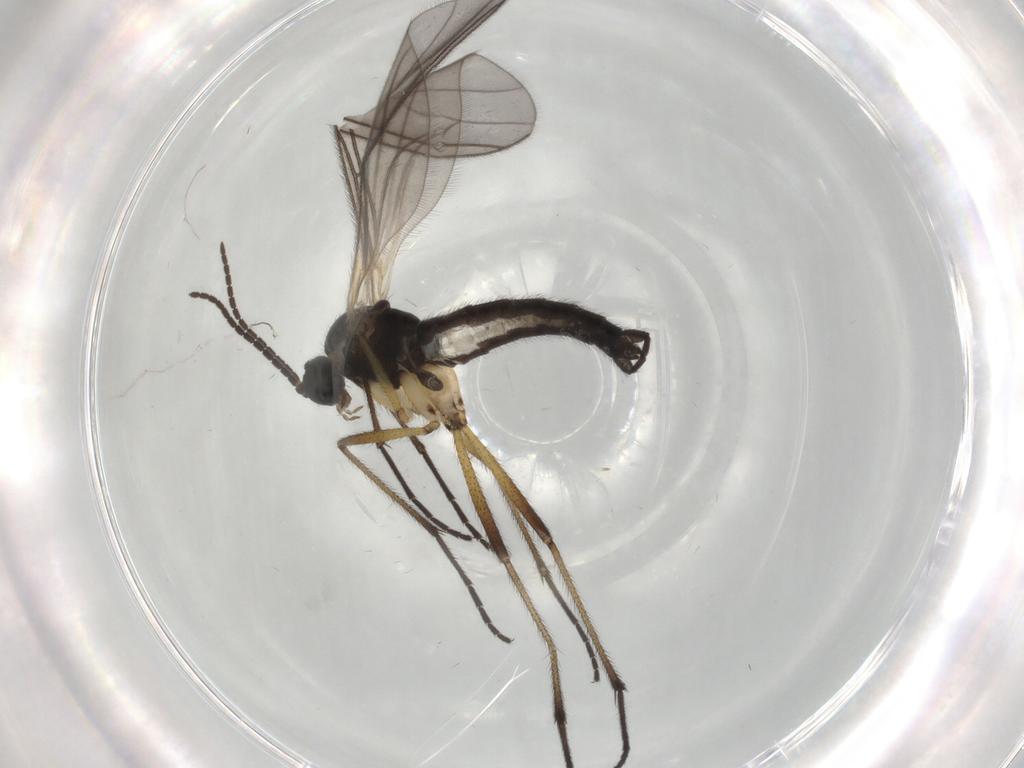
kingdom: Animalia
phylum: Arthropoda
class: Insecta
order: Diptera
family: Sciaridae
